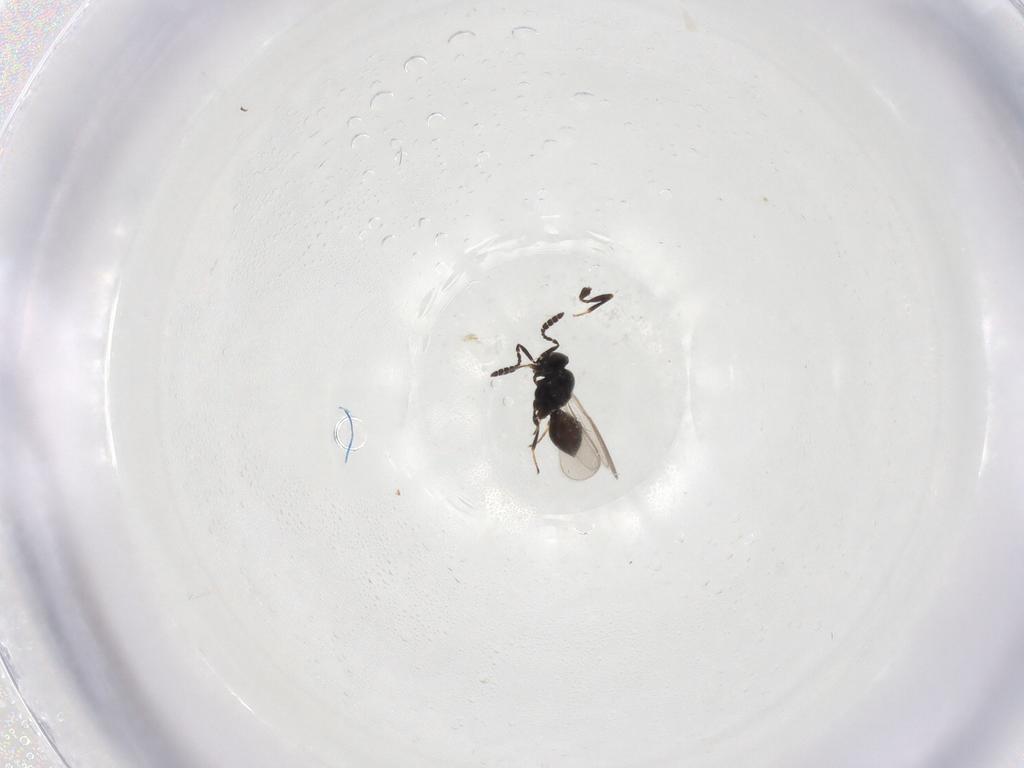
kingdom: Animalia
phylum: Arthropoda
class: Insecta
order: Hymenoptera
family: Scelionidae
